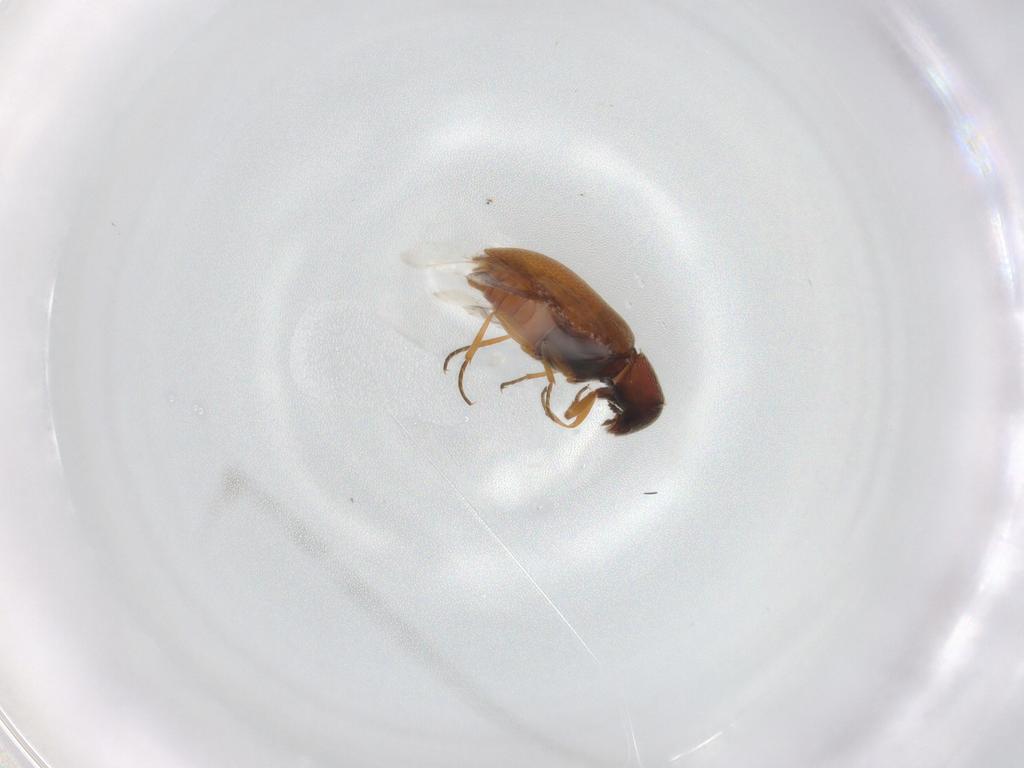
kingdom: Animalia
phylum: Arthropoda
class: Insecta
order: Coleoptera
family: Rhadalidae
